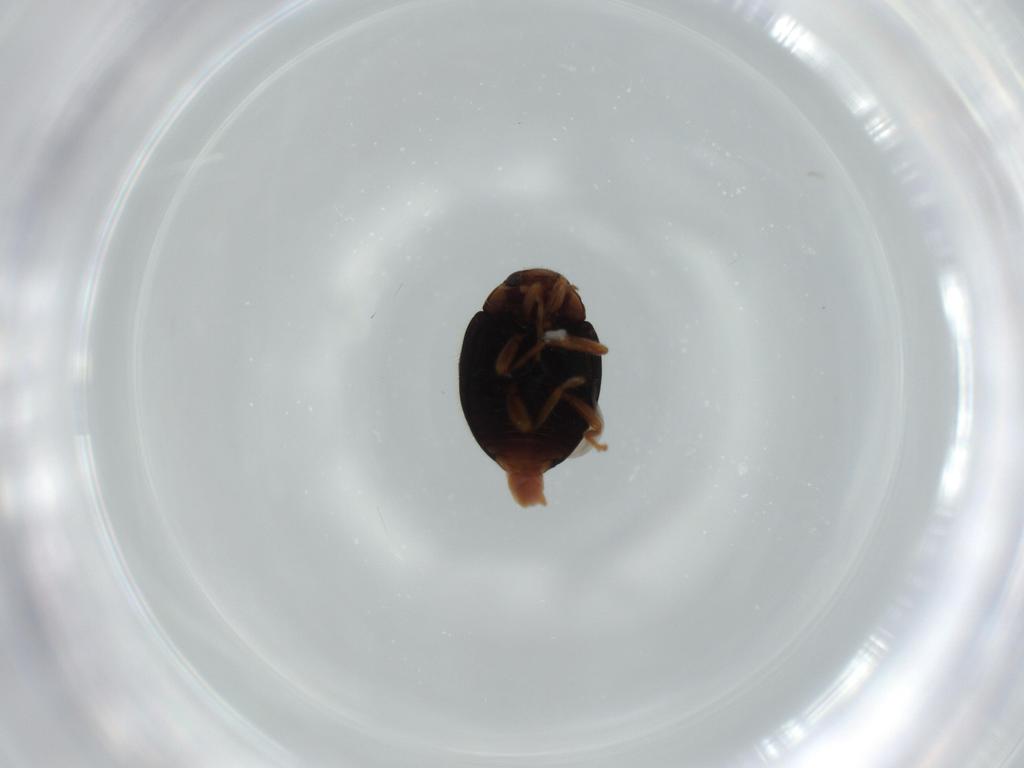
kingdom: Animalia
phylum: Arthropoda
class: Insecta
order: Coleoptera
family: Coccinellidae
